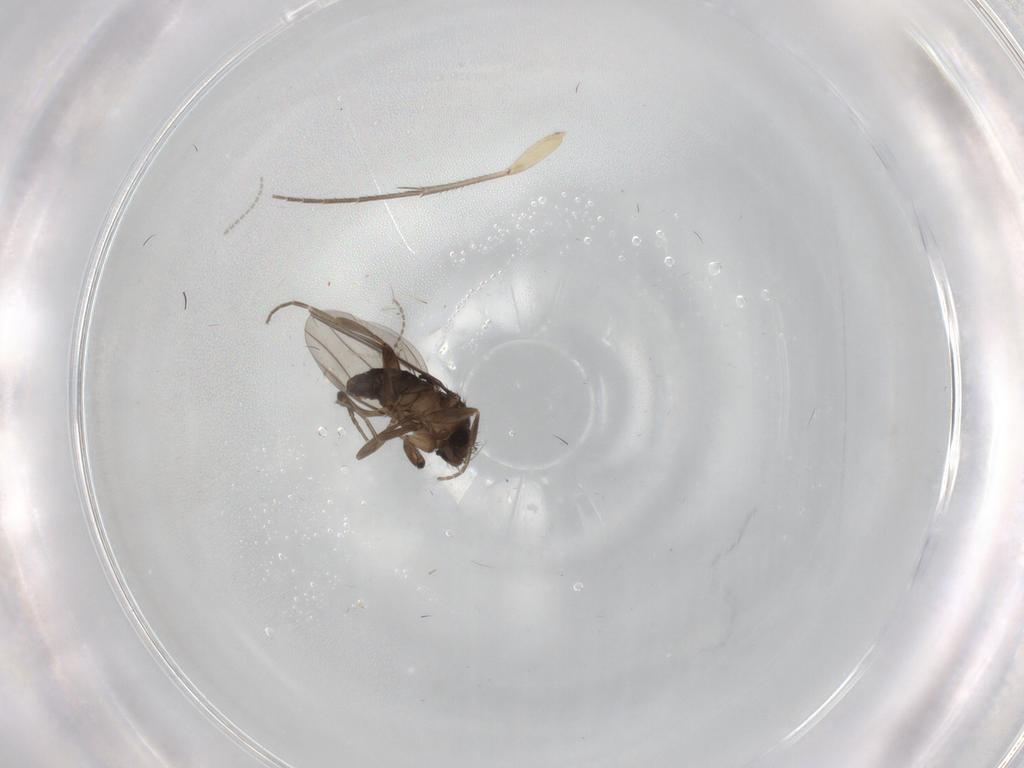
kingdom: Animalia
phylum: Arthropoda
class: Insecta
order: Diptera
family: Phoridae
